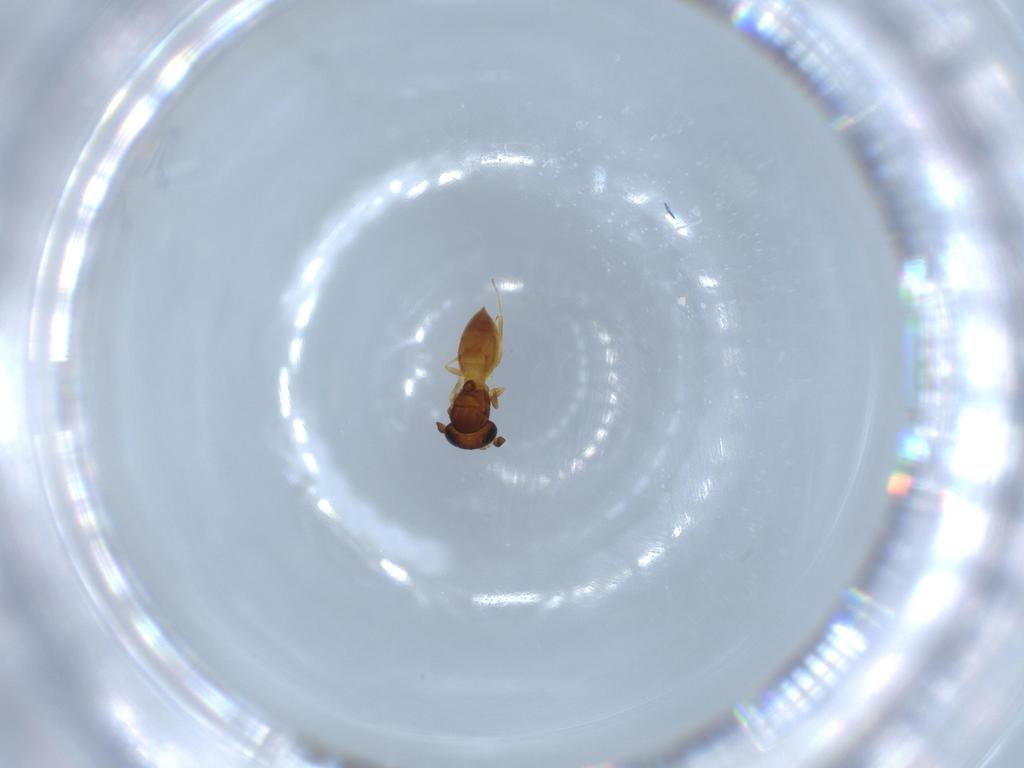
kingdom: Animalia
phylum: Arthropoda
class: Insecta
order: Hymenoptera
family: Scelionidae
